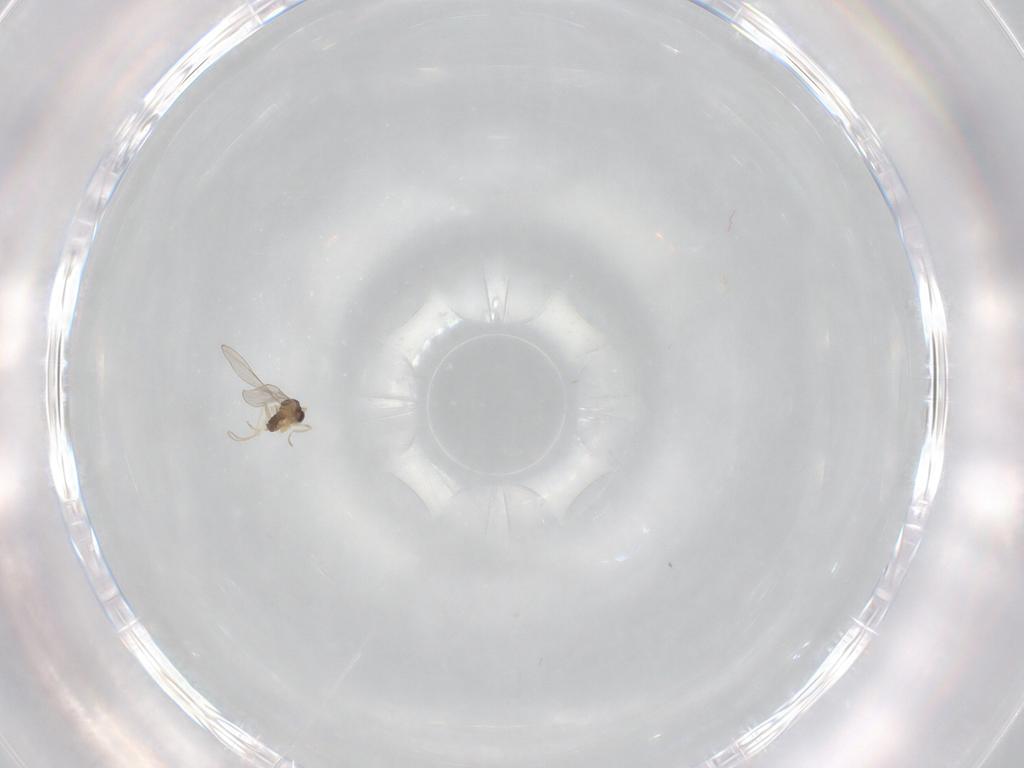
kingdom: Animalia
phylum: Arthropoda
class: Insecta
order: Diptera
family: Cecidomyiidae
